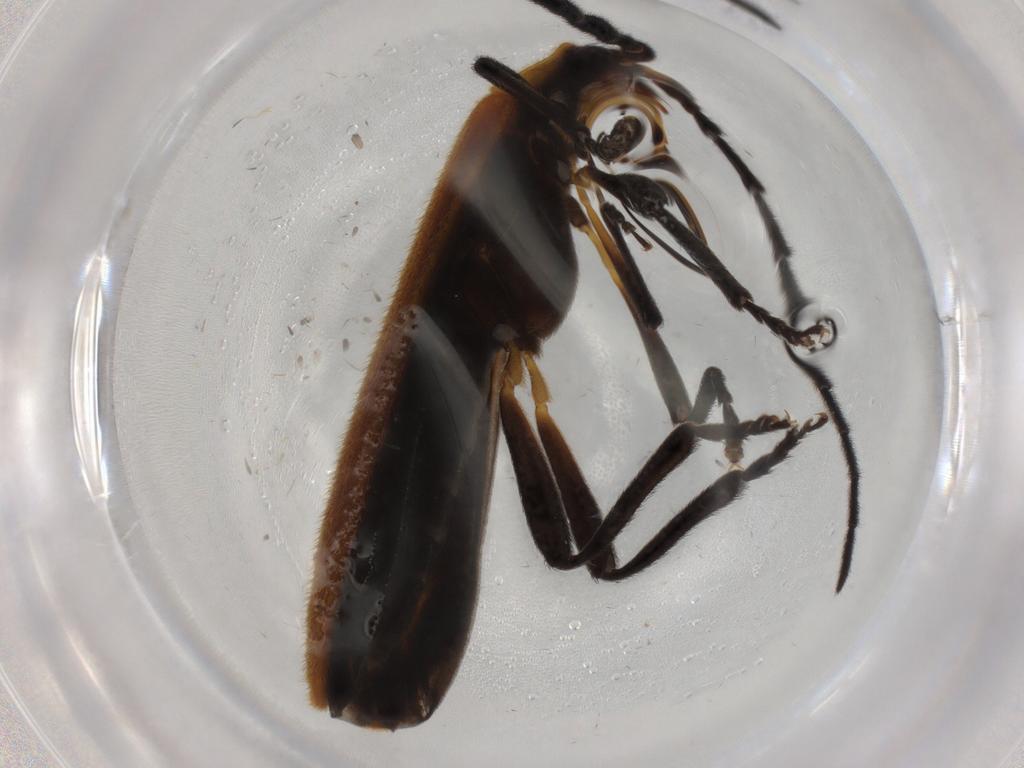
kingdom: Animalia
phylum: Arthropoda
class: Insecta
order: Coleoptera
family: Lycidae
